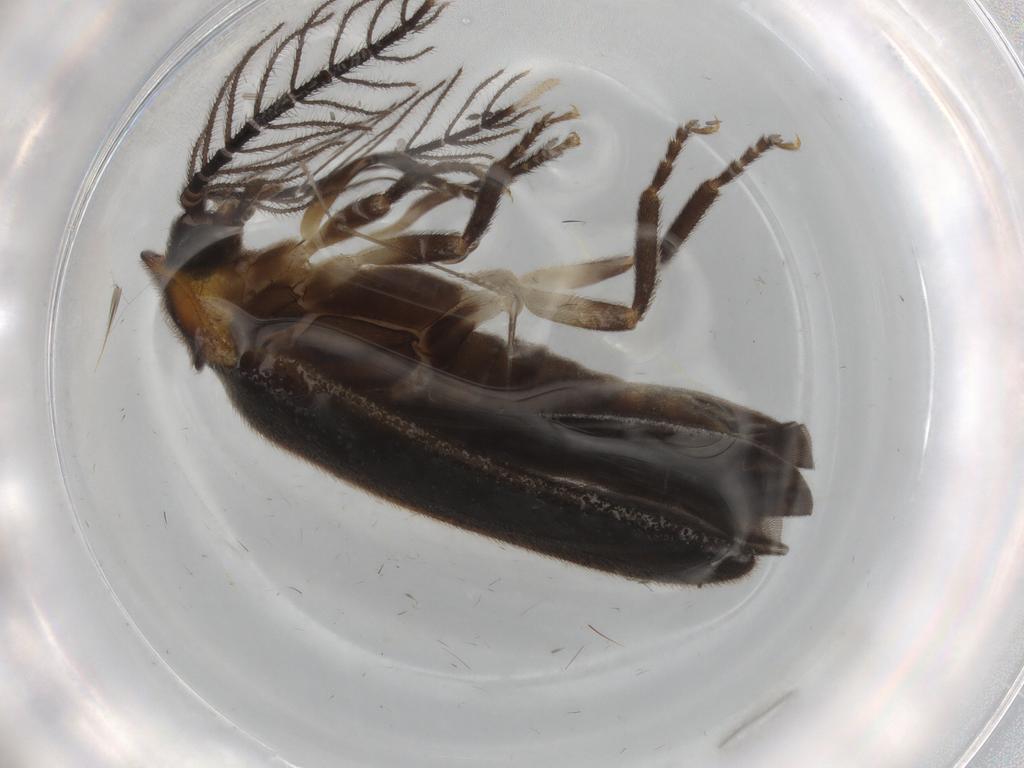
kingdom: Animalia
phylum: Arthropoda
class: Insecta
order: Coleoptera
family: Lampyridae
